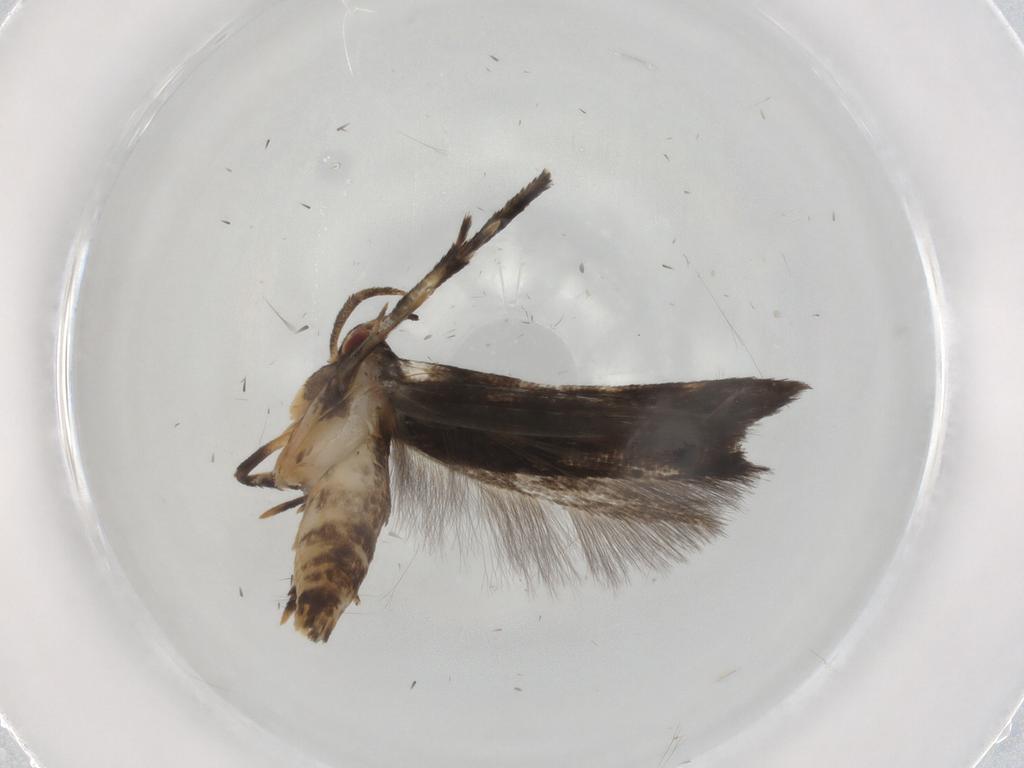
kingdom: Animalia
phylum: Arthropoda
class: Insecta
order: Lepidoptera
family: Momphidae
